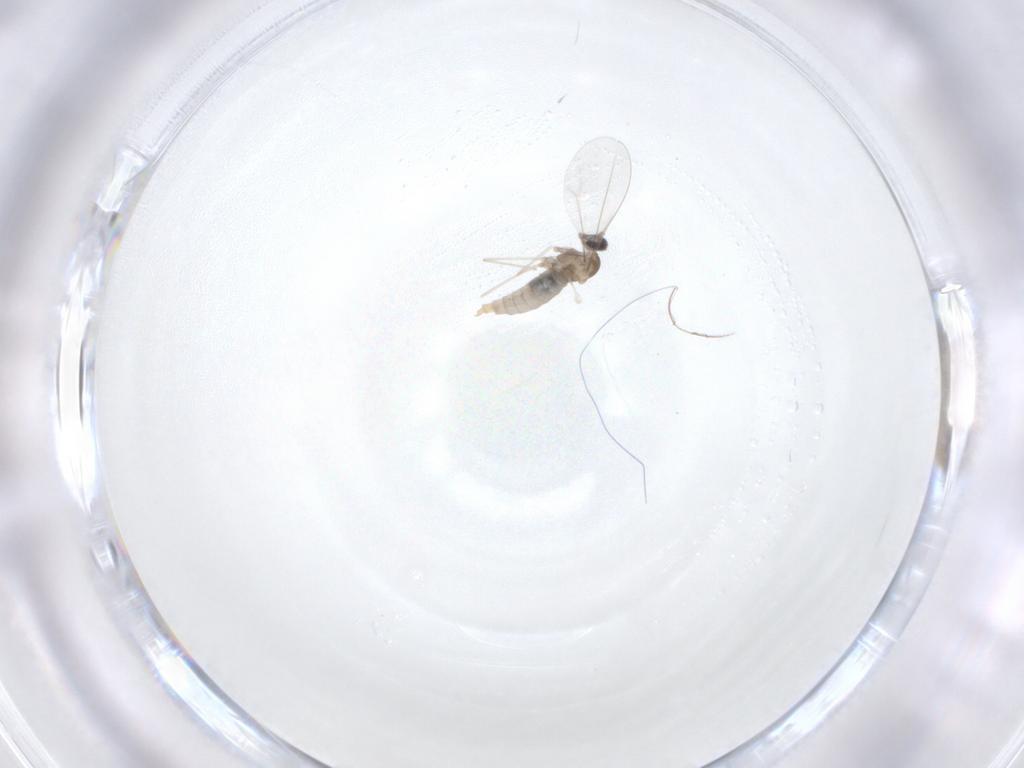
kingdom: Animalia
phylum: Arthropoda
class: Insecta
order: Diptera
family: Cecidomyiidae
